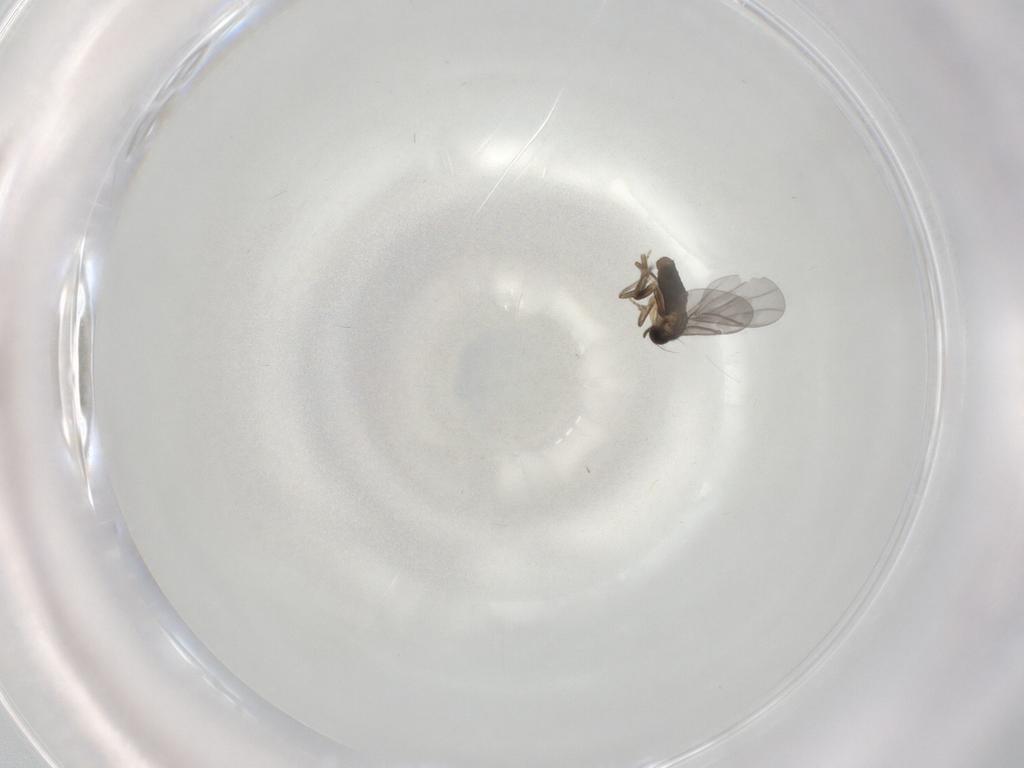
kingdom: Animalia
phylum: Arthropoda
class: Insecta
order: Diptera
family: Psychodidae
